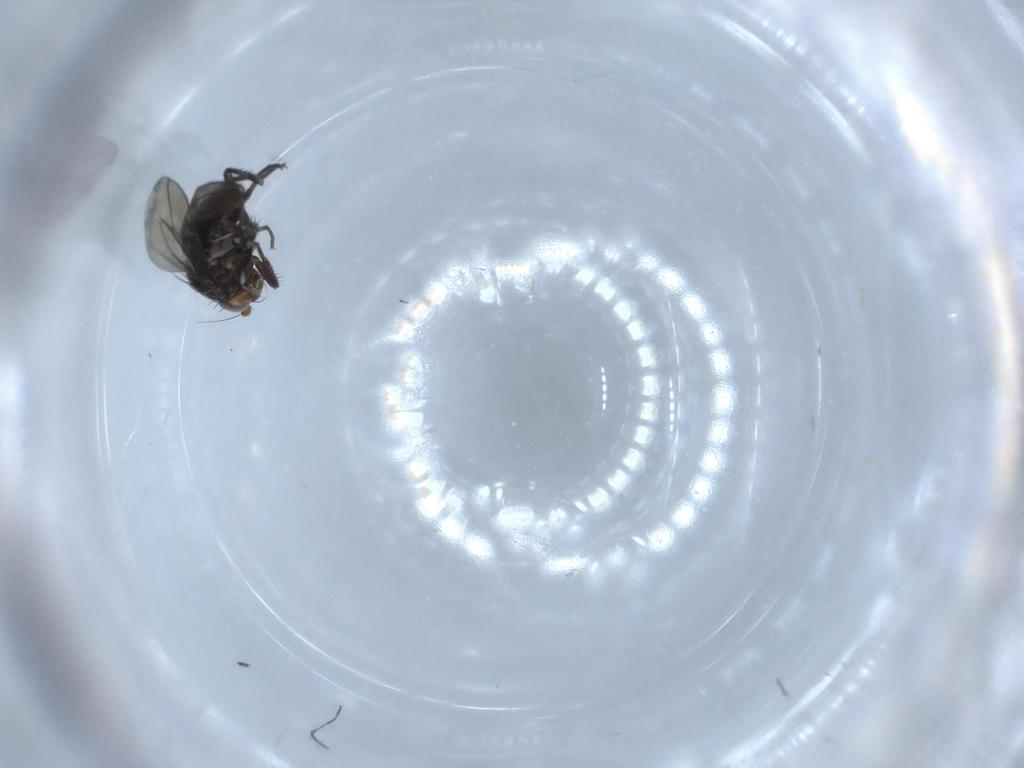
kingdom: Animalia
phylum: Arthropoda
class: Insecta
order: Diptera
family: Sphaeroceridae
